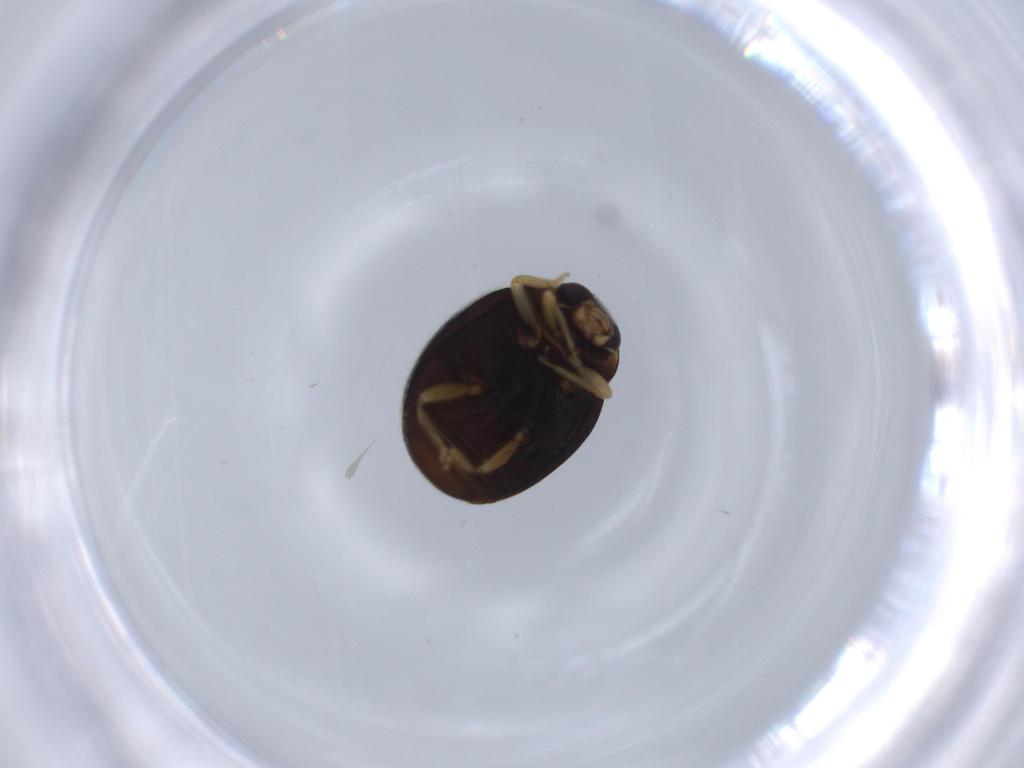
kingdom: Animalia
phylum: Arthropoda
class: Insecta
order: Coleoptera
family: Coccinellidae
